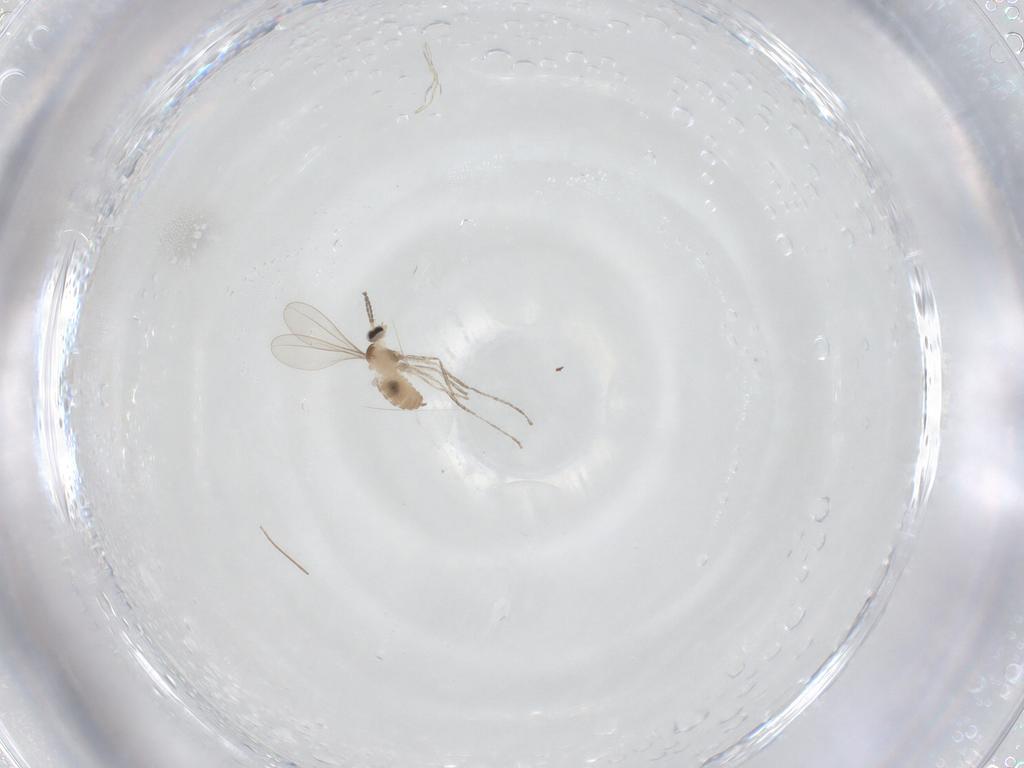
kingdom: Animalia
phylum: Arthropoda
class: Insecta
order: Diptera
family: Cecidomyiidae
